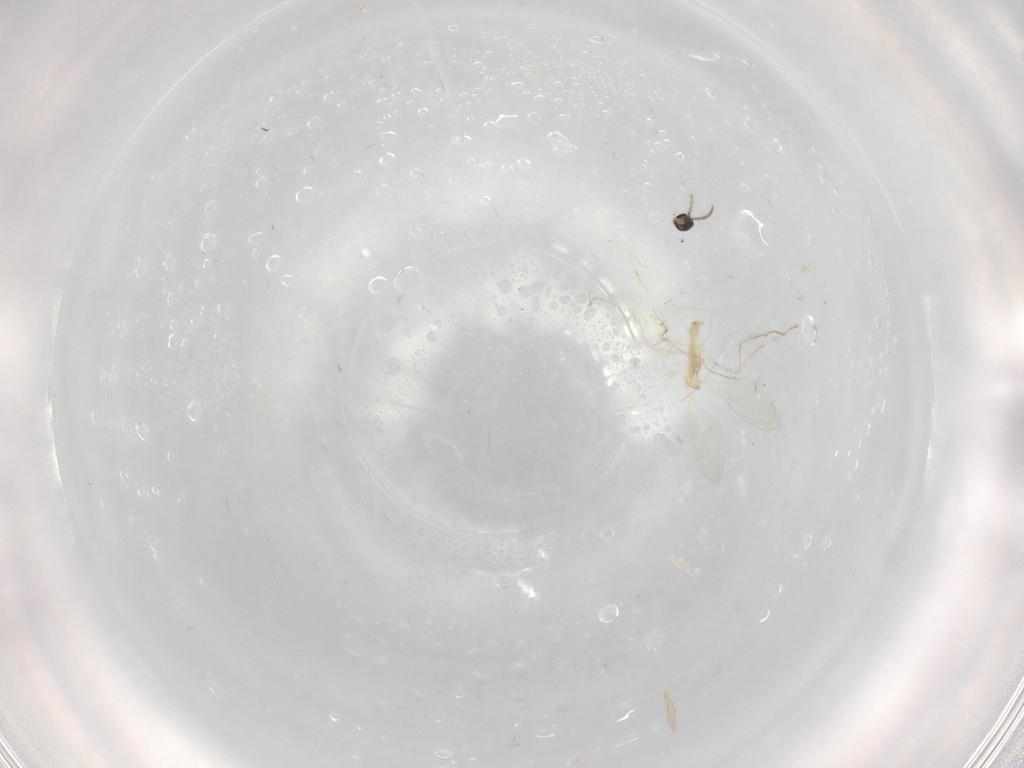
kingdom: Animalia
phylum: Arthropoda
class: Insecta
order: Diptera
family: Cecidomyiidae
